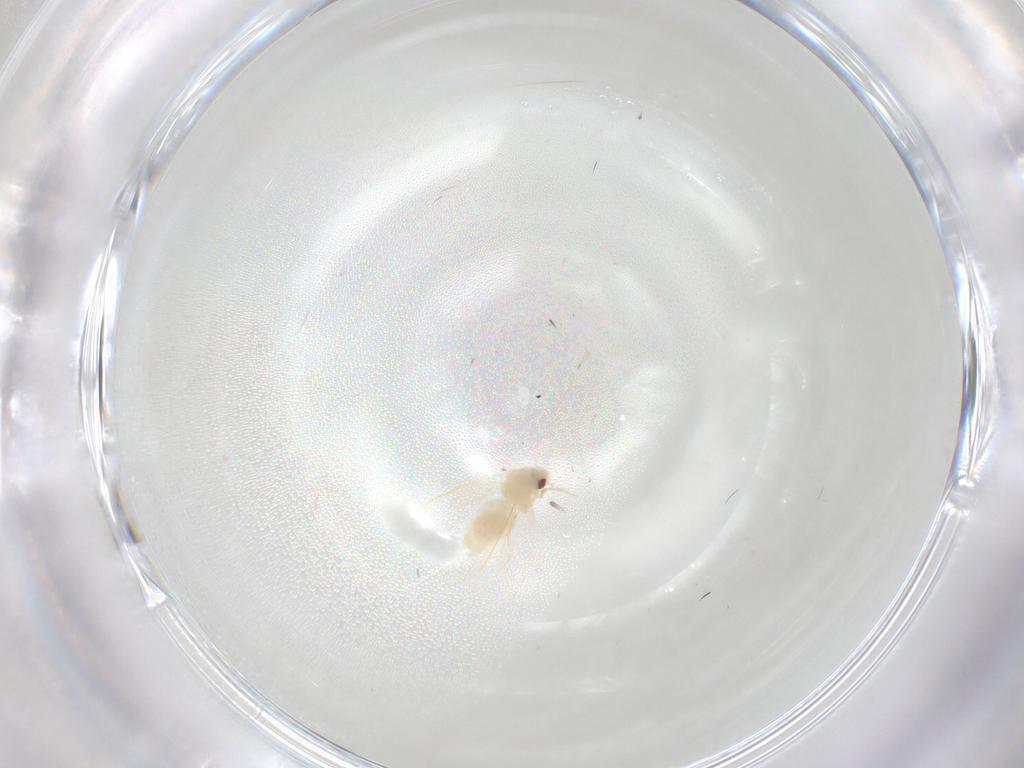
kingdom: Animalia
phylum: Arthropoda
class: Insecta
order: Hemiptera
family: Aleyrodidae
